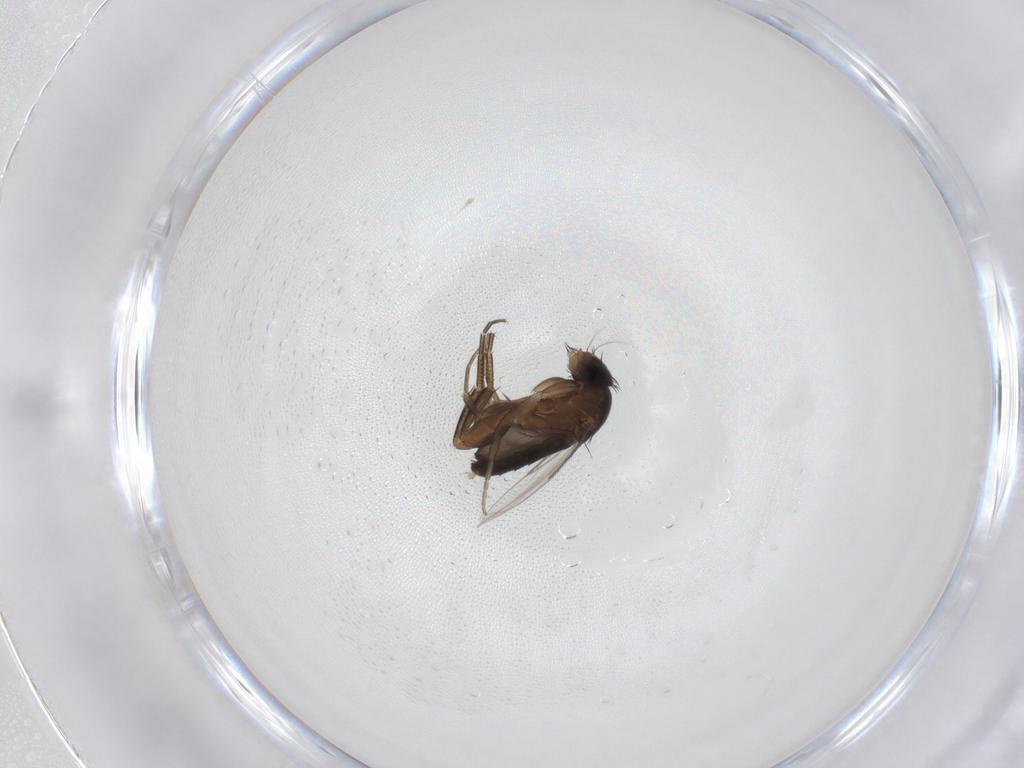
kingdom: Animalia
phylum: Arthropoda
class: Insecta
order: Diptera
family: Phoridae
